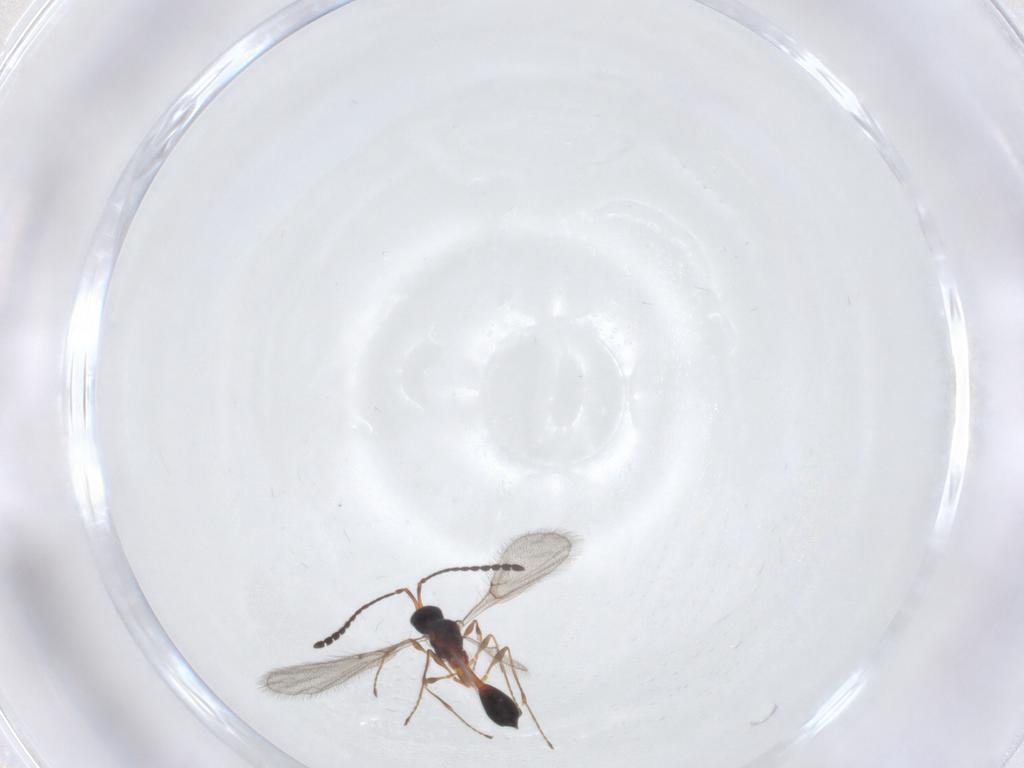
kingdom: Animalia
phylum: Arthropoda
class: Insecta
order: Hymenoptera
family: Braconidae
